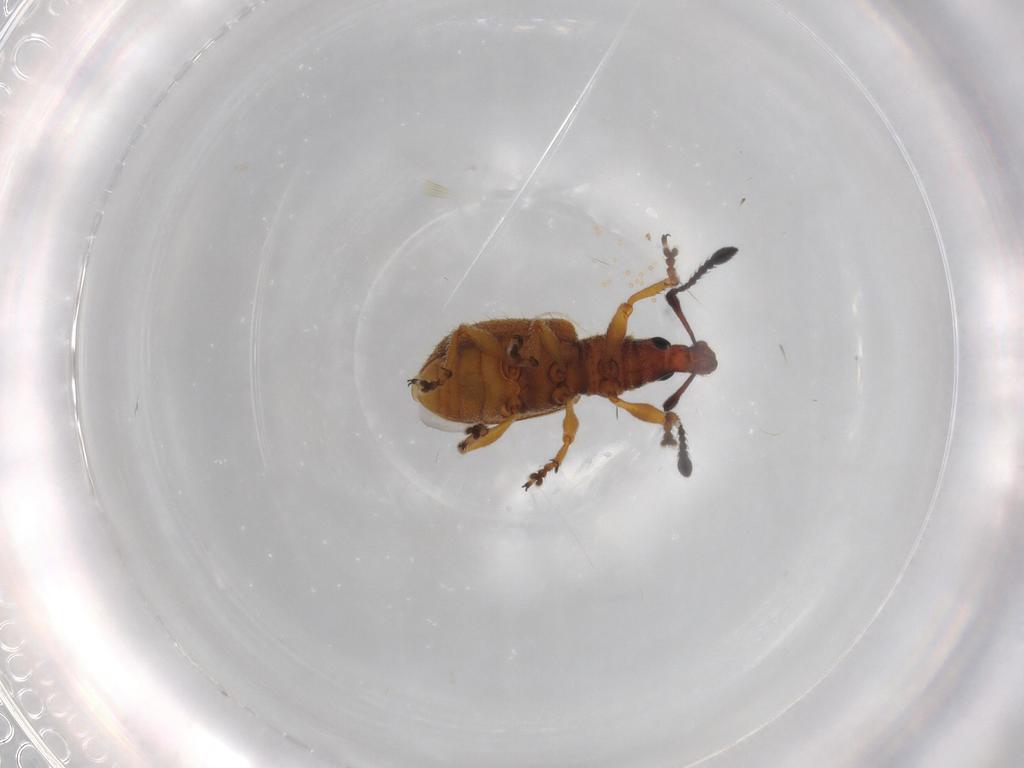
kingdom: Animalia
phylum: Arthropoda
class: Insecta
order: Coleoptera
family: Curculionidae
